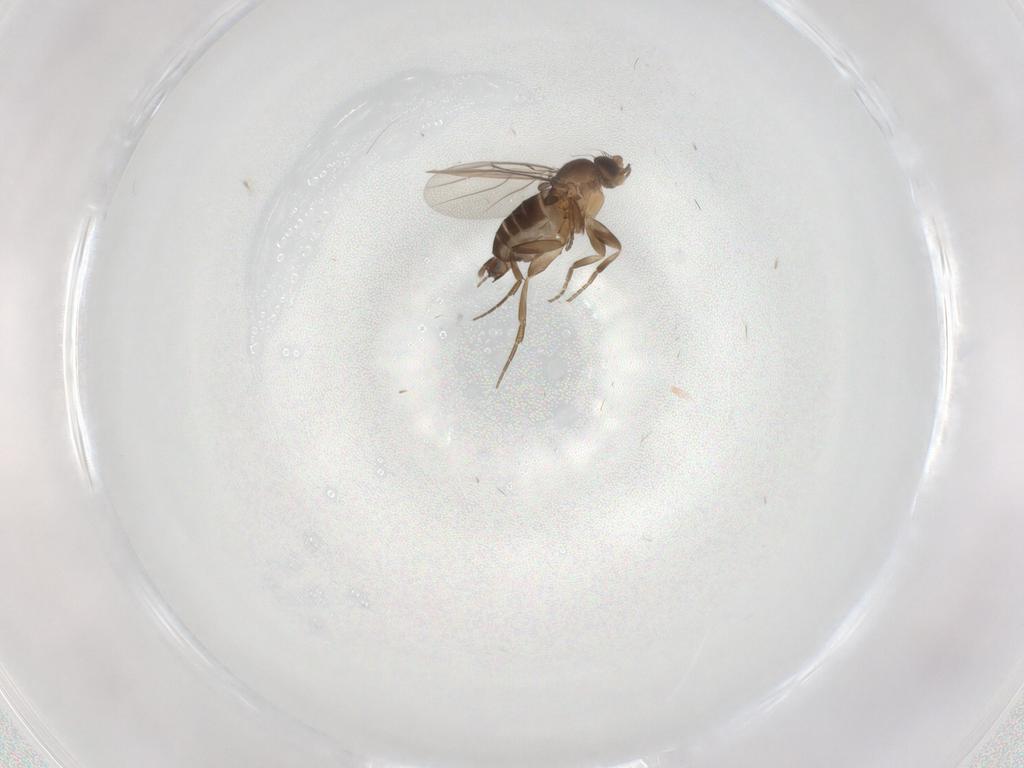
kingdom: Animalia
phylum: Arthropoda
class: Insecta
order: Diptera
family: Phoridae
